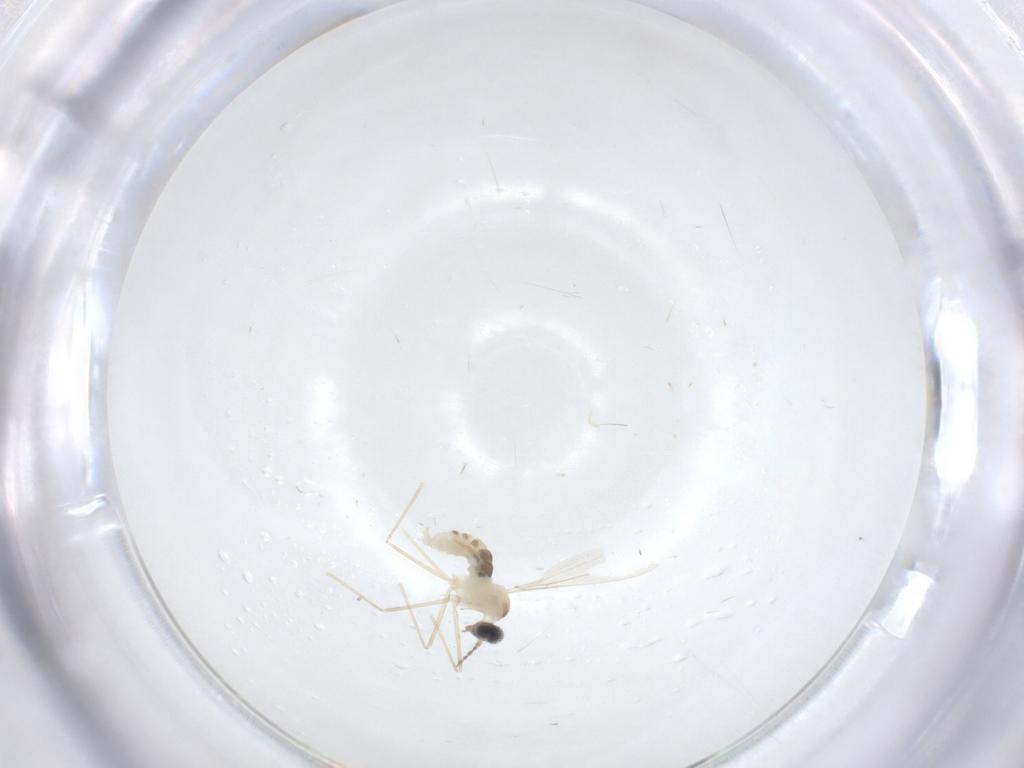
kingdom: Animalia
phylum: Arthropoda
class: Insecta
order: Diptera
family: Cecidomyiidae
